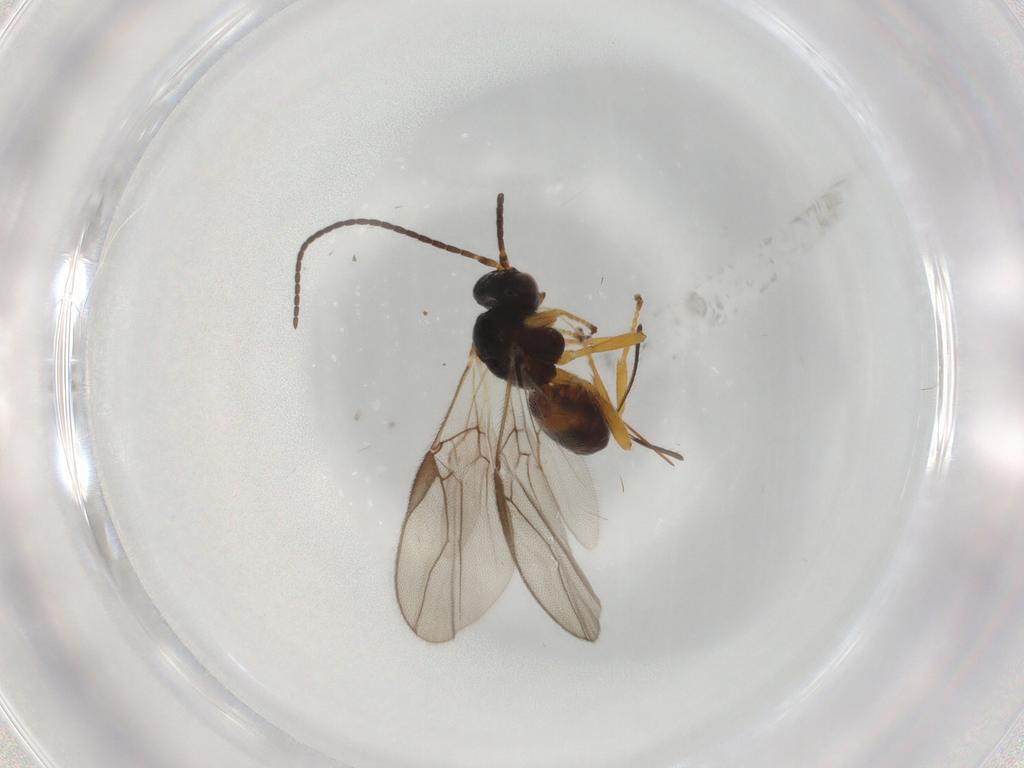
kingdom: Animalia
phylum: Arthropoda
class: Insecta
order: Hymenoptera
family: Braconidae
